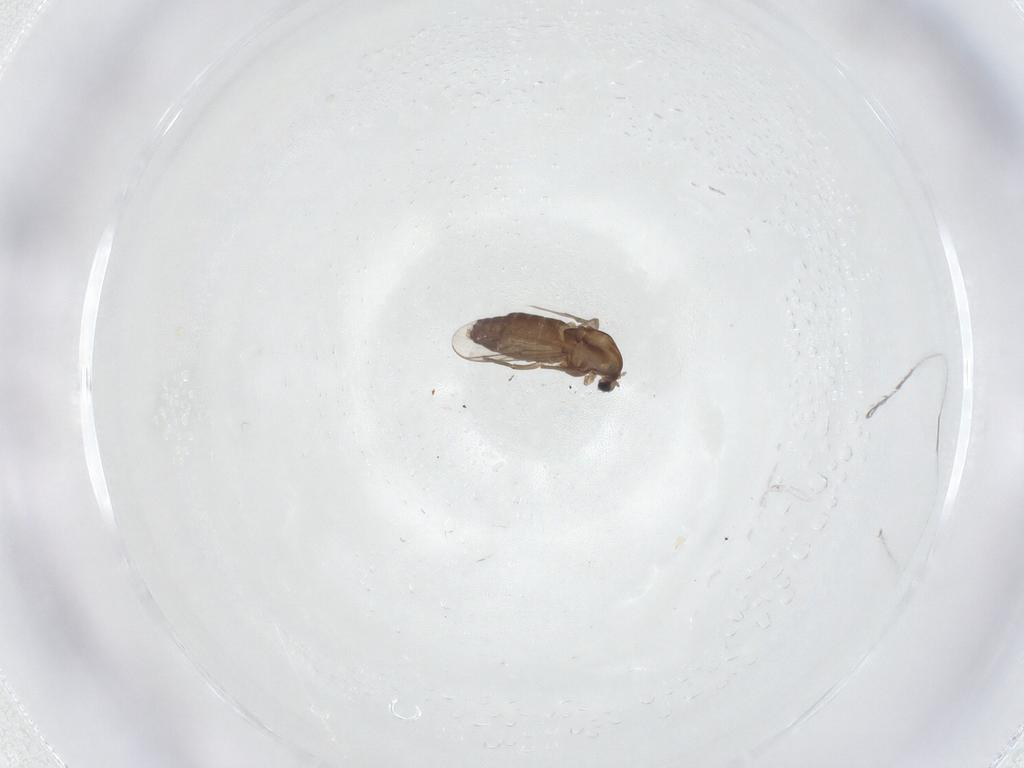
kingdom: Animalia
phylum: Arthropoda
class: Insecta
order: Diptera
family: Chironomidae
